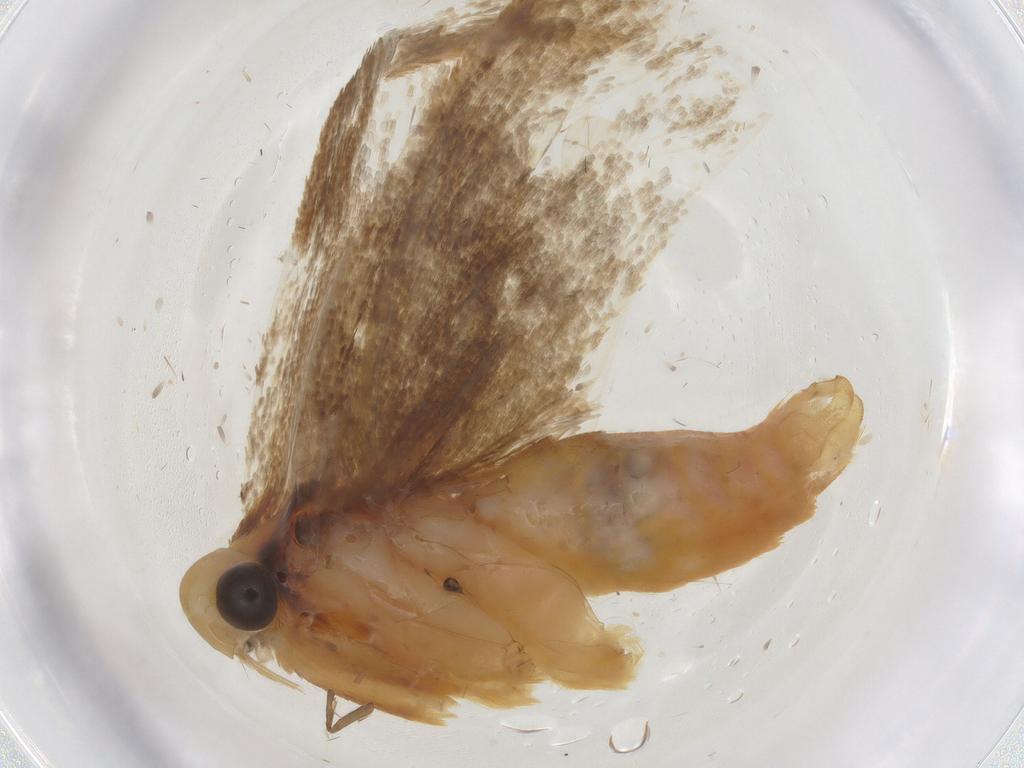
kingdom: Animalia
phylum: Arthropoda
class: Insecta
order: Lepidoptera
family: Lecithoceridae
